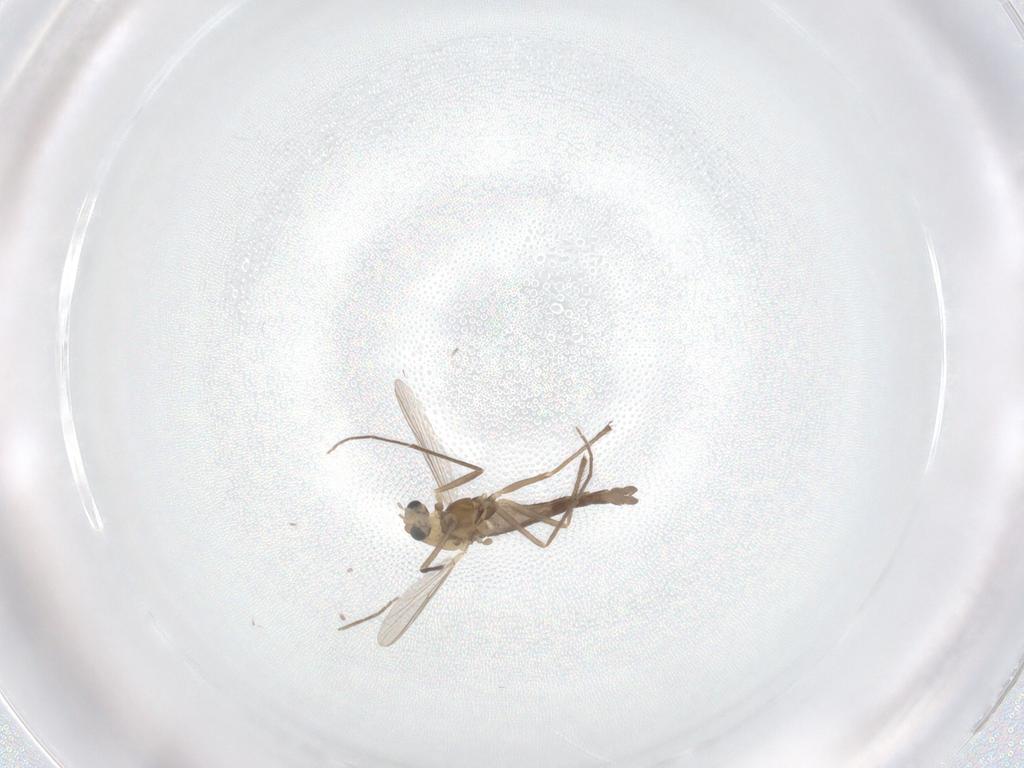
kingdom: Animalia
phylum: Arthropoda
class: Insecta
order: Diptera
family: Chironomidae
